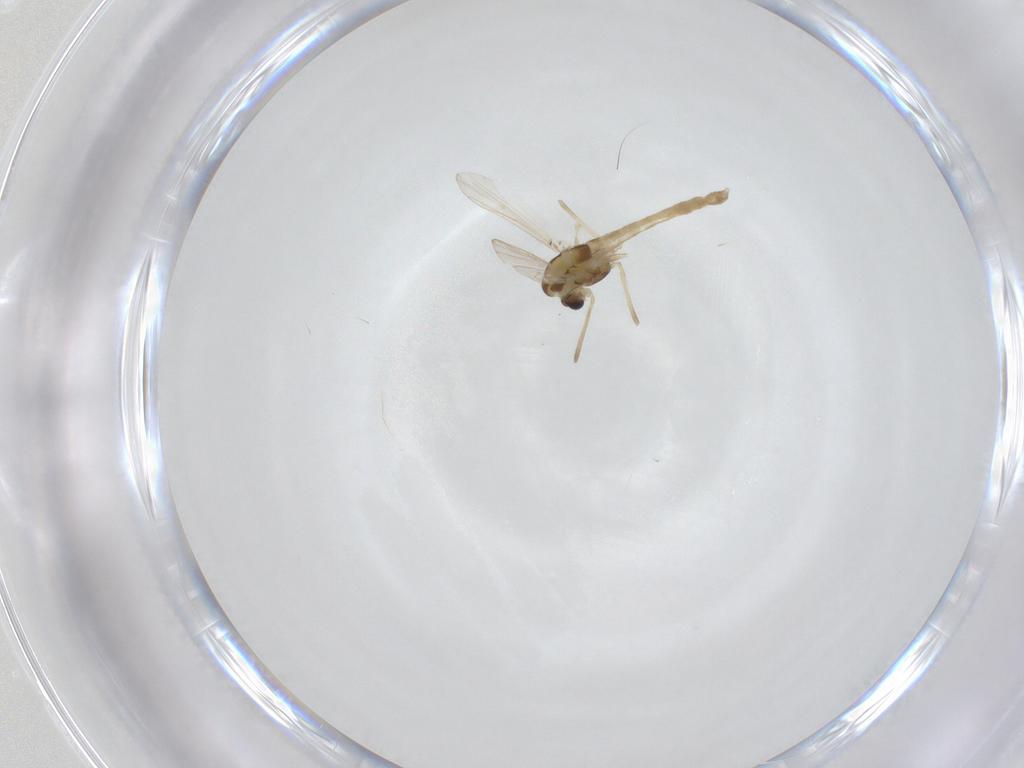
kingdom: Animalia
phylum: Arthropoda
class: Insecta
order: Diptera
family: Chironomidae
